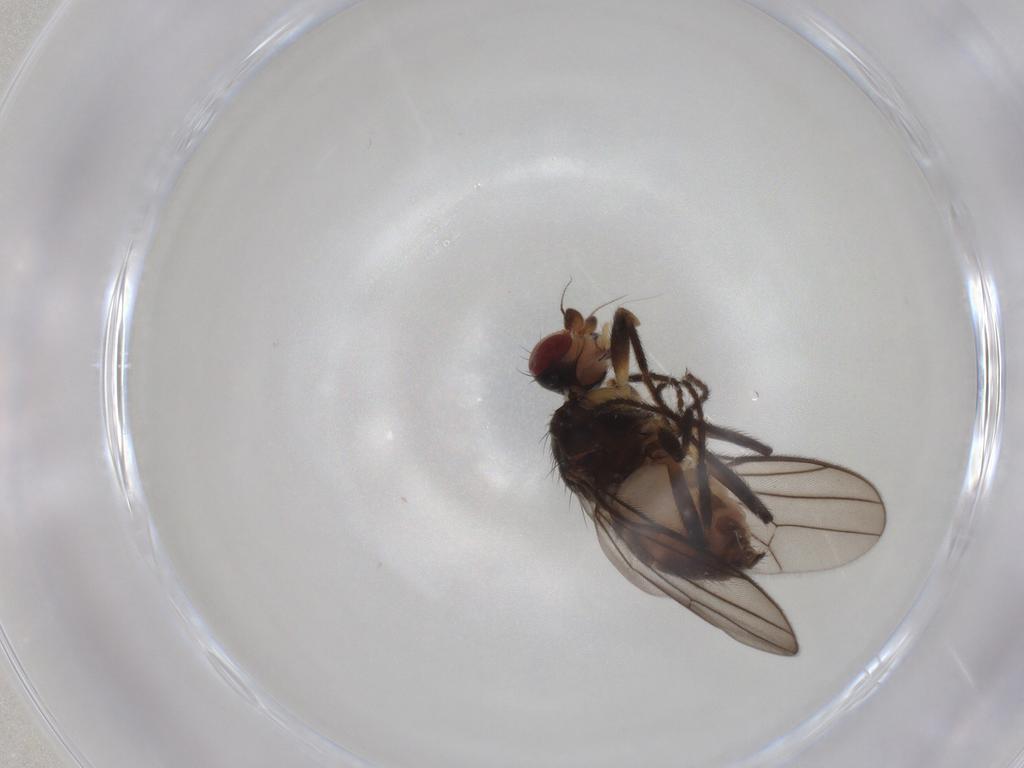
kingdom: Animalia
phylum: Arthropoda
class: Insecta
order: Diptera
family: Chloropidae
